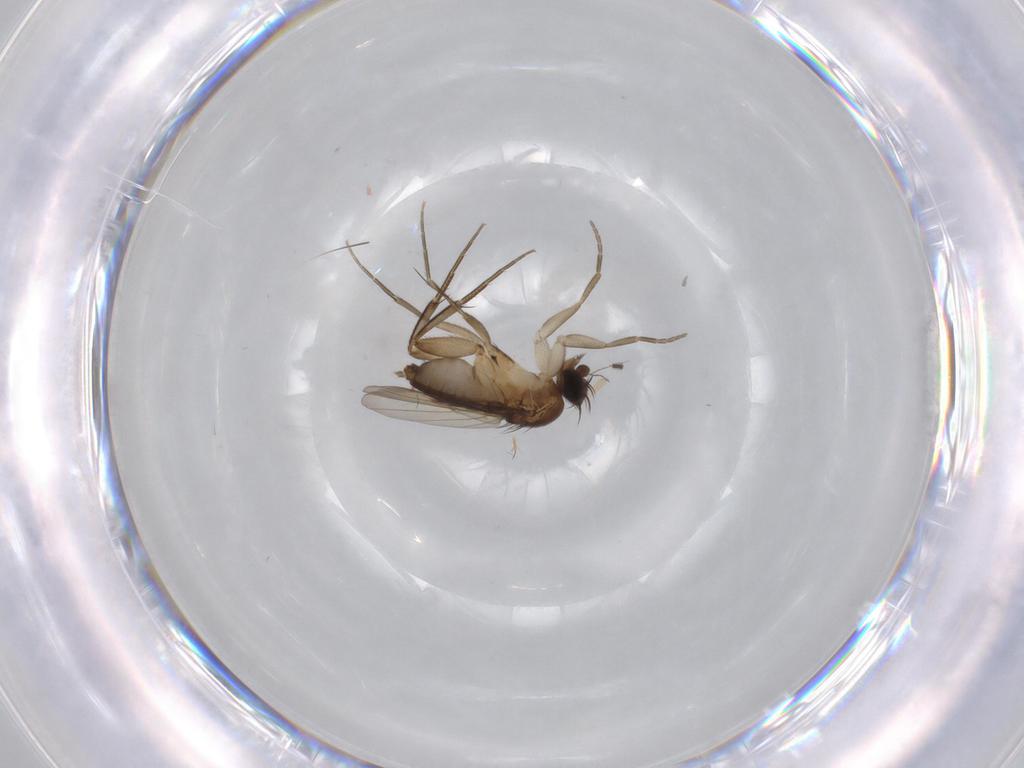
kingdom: Animalia
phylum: Arthropoda
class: Insecta
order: Diptera
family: Phoridae
